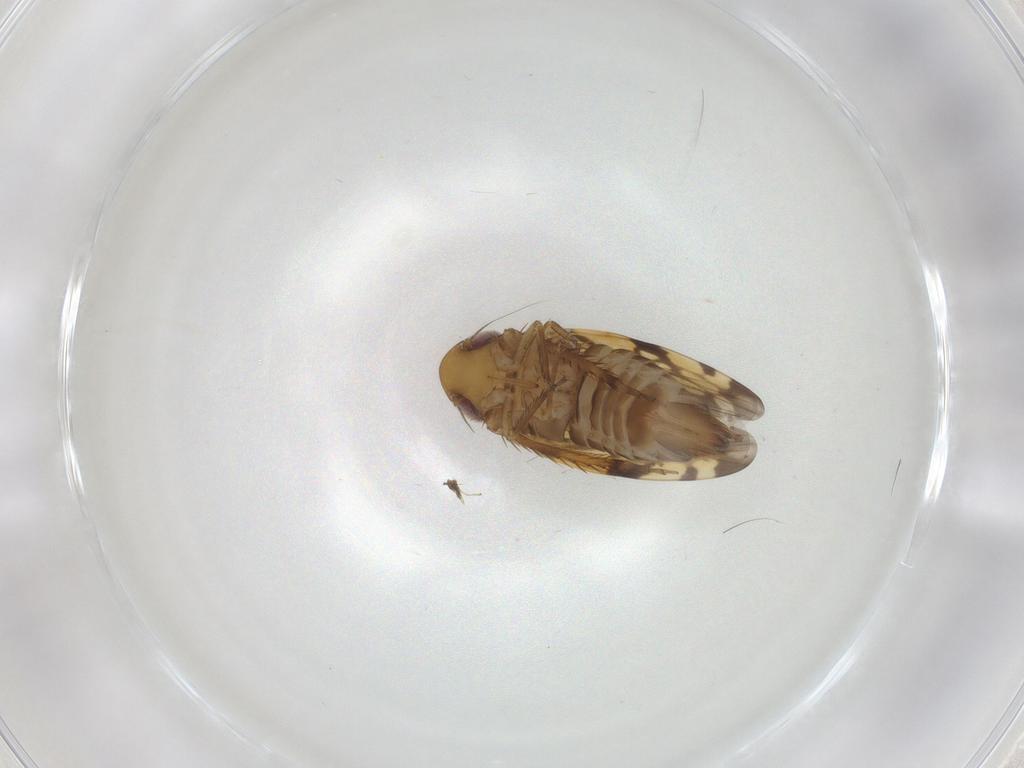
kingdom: Animalia
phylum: Arthropoda
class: Insecta
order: Hemiptera
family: Cicadellidae
